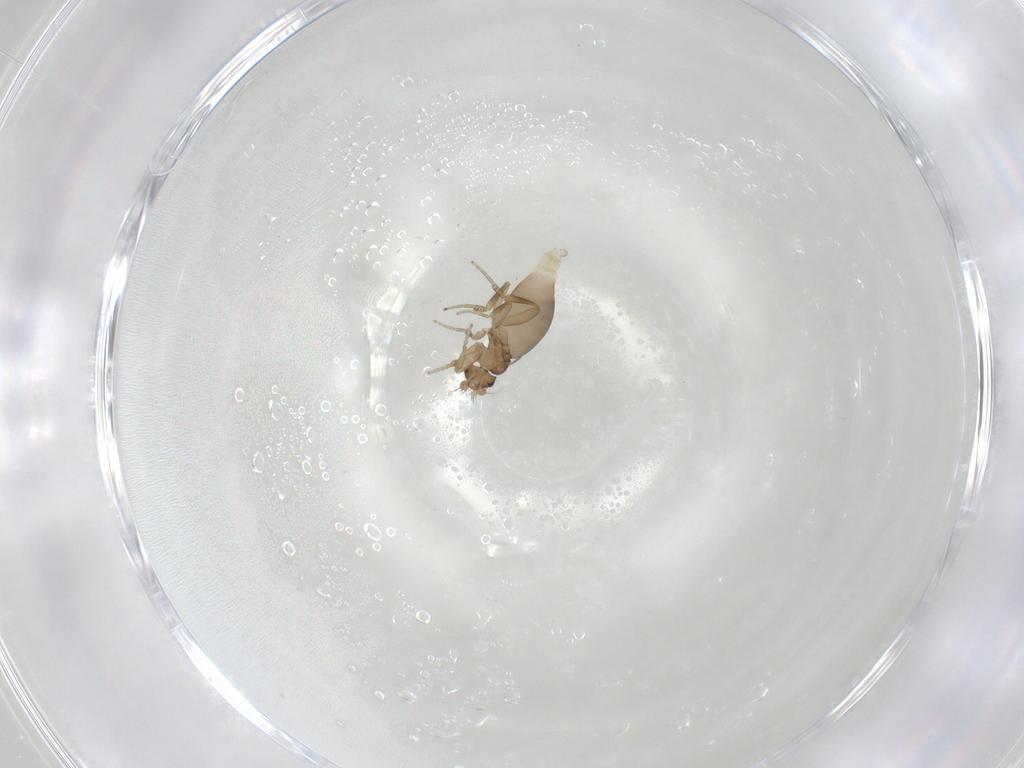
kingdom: Animalia
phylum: Arthropoda
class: Insecta
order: Diptera
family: Phoridae
